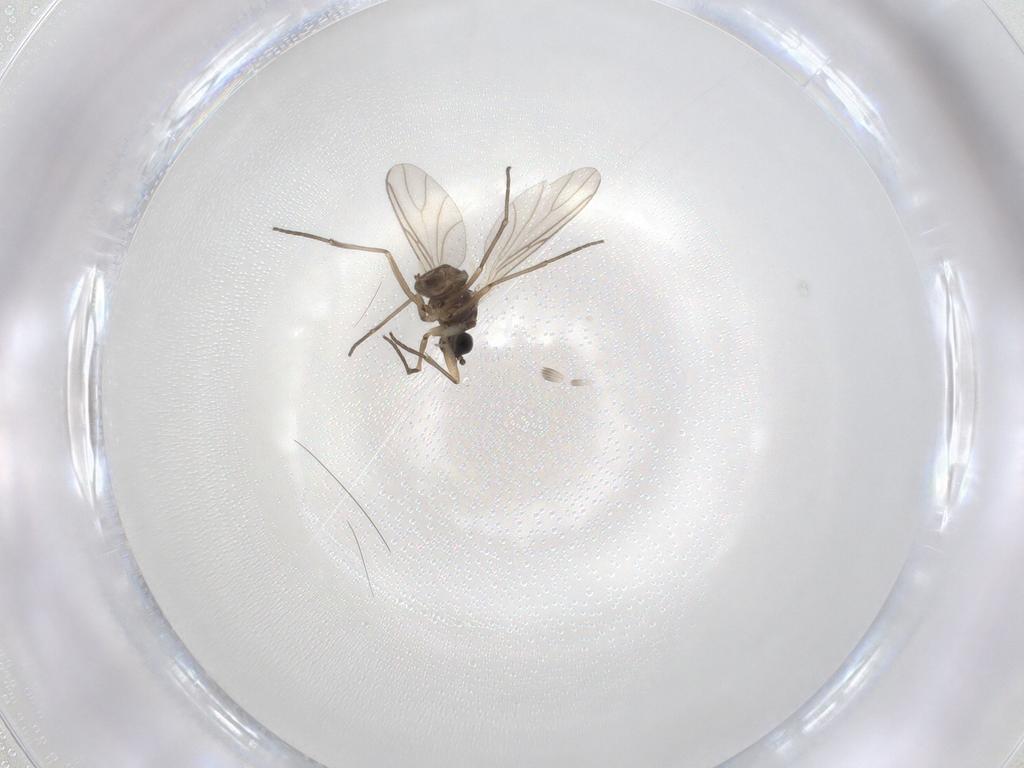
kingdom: Animalia
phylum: Arthropoda
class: Insecta
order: Diptera
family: Sciaridae
